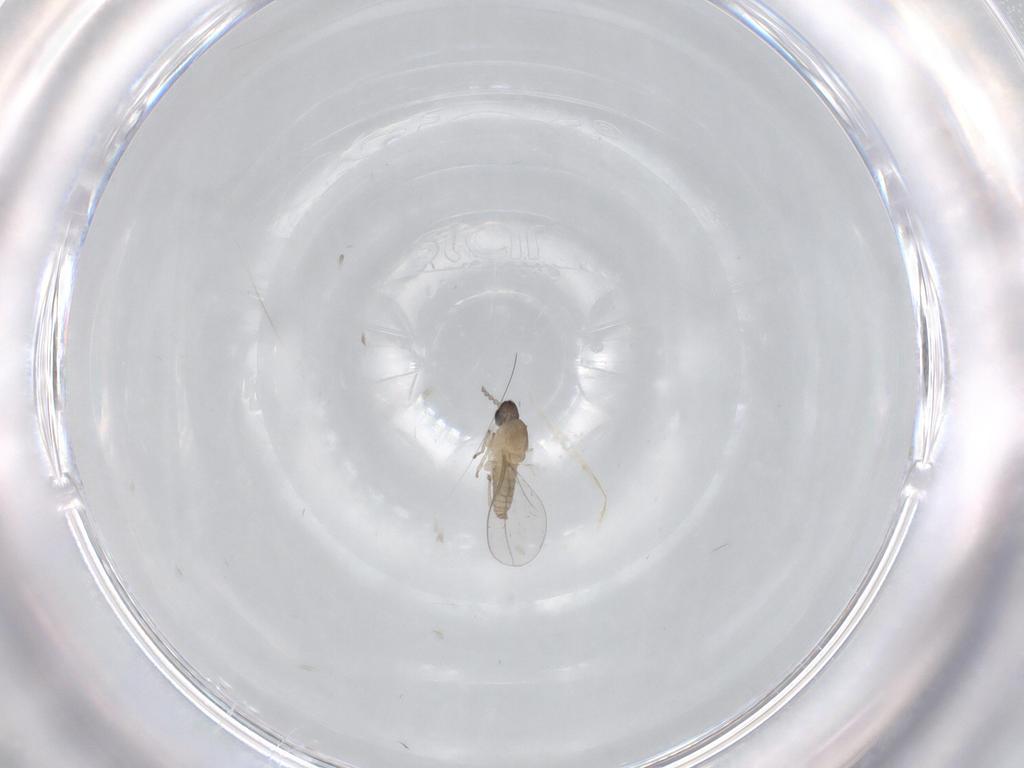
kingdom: Animalia
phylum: Arthropoda
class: Insecta
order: Diptera
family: Cecidomyiidae
